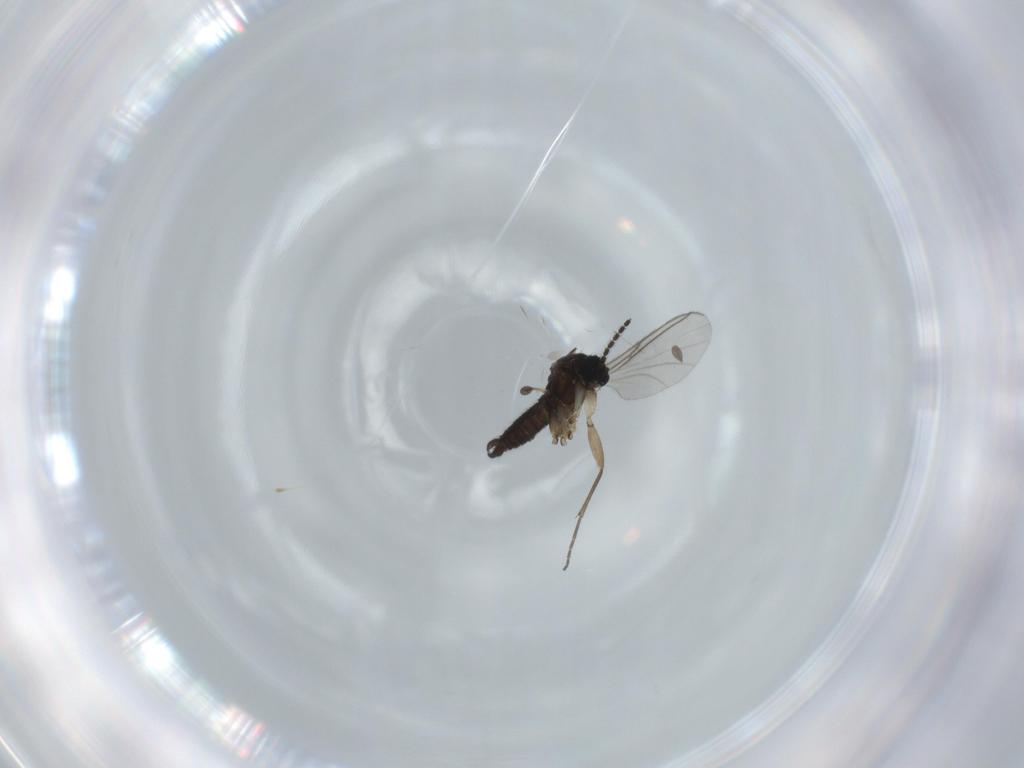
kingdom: Animalia
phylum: Arthropoda
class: Insecta
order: Diptera
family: Sciaridae
